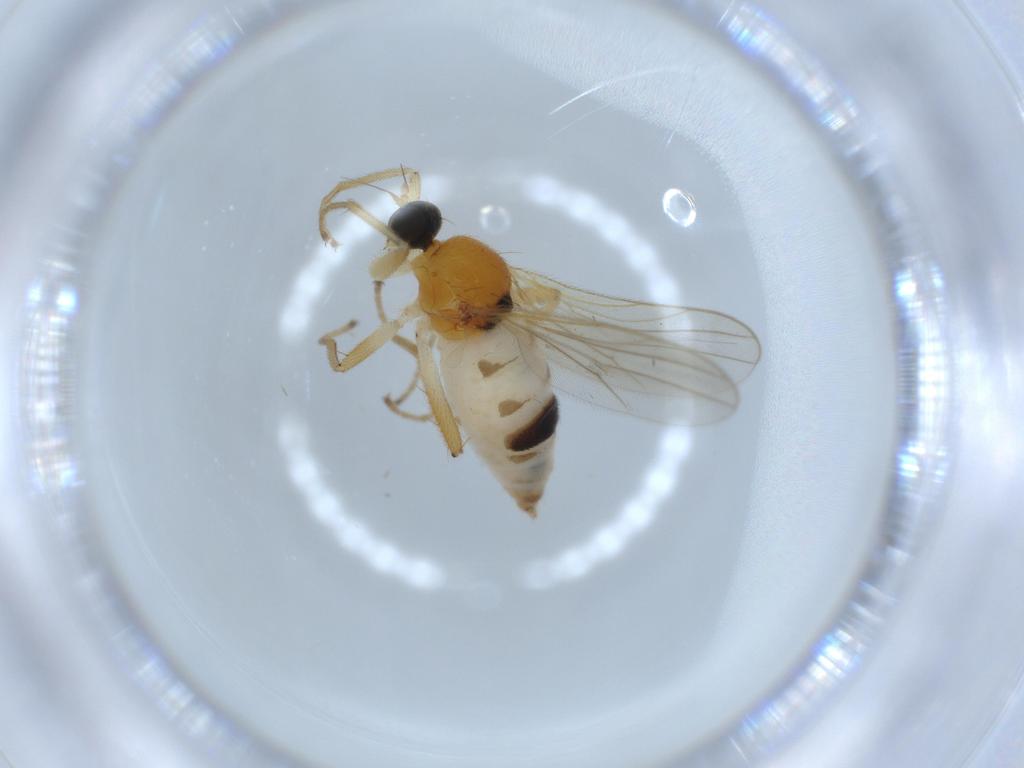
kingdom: Animalia
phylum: Arthropoda
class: Insecta
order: Diptera
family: Hybotidae
